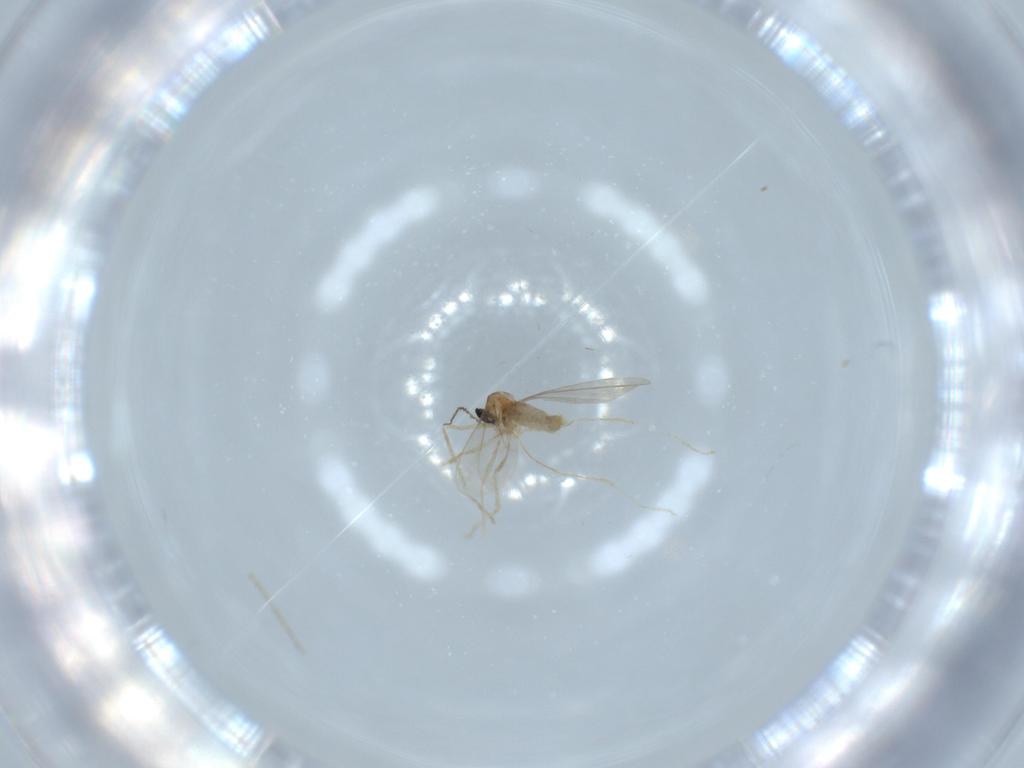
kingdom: Animalia
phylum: Arthropoda
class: Insecta
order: Diptera
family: Cecidomyiidae
